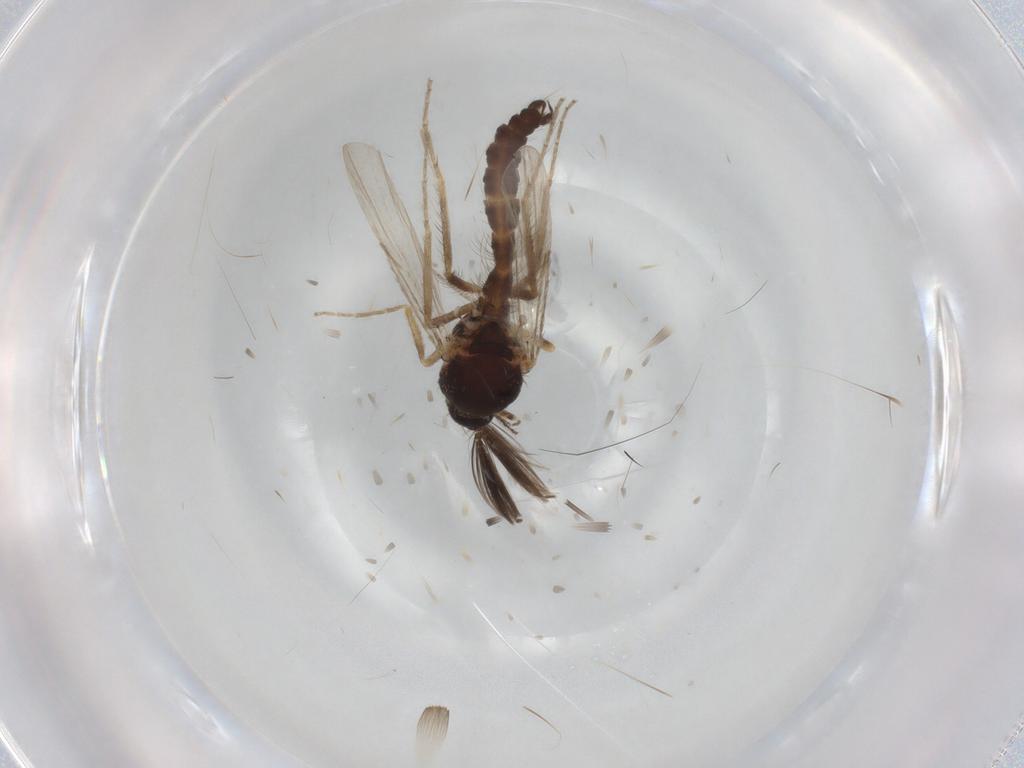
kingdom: Animalia
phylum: Arthropoda
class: Insecta
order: Diptera
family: Ceratopogonidae
